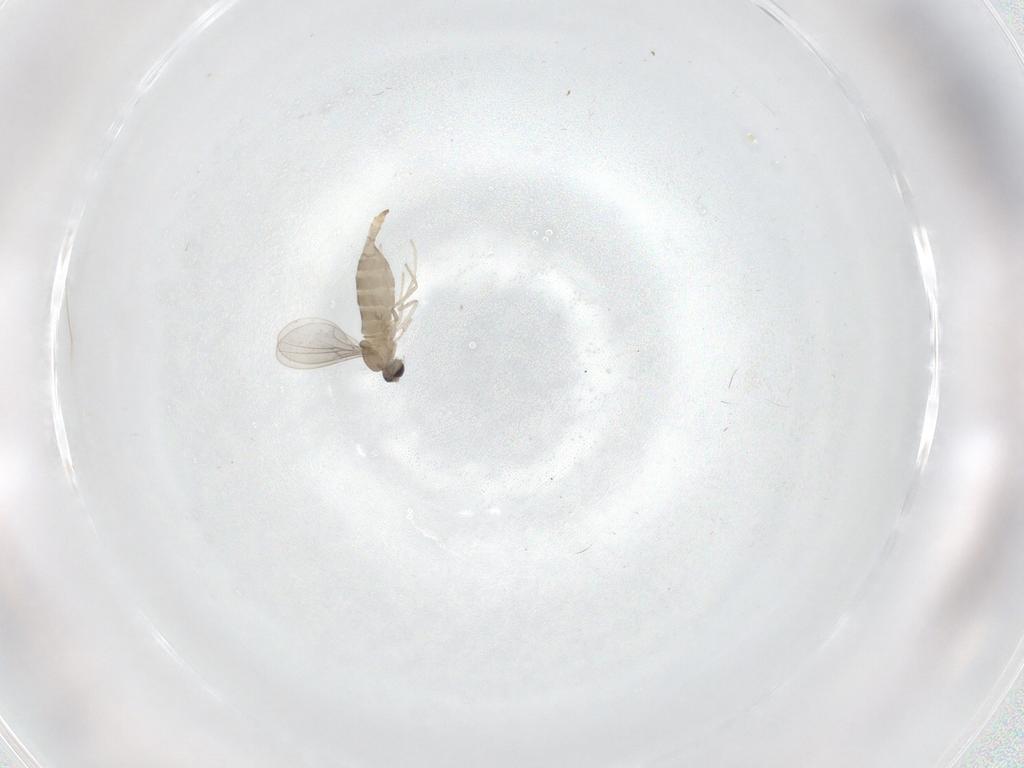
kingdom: Animalia
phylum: Arthropoda
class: Insecta
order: Diptera
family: Chironomidae
